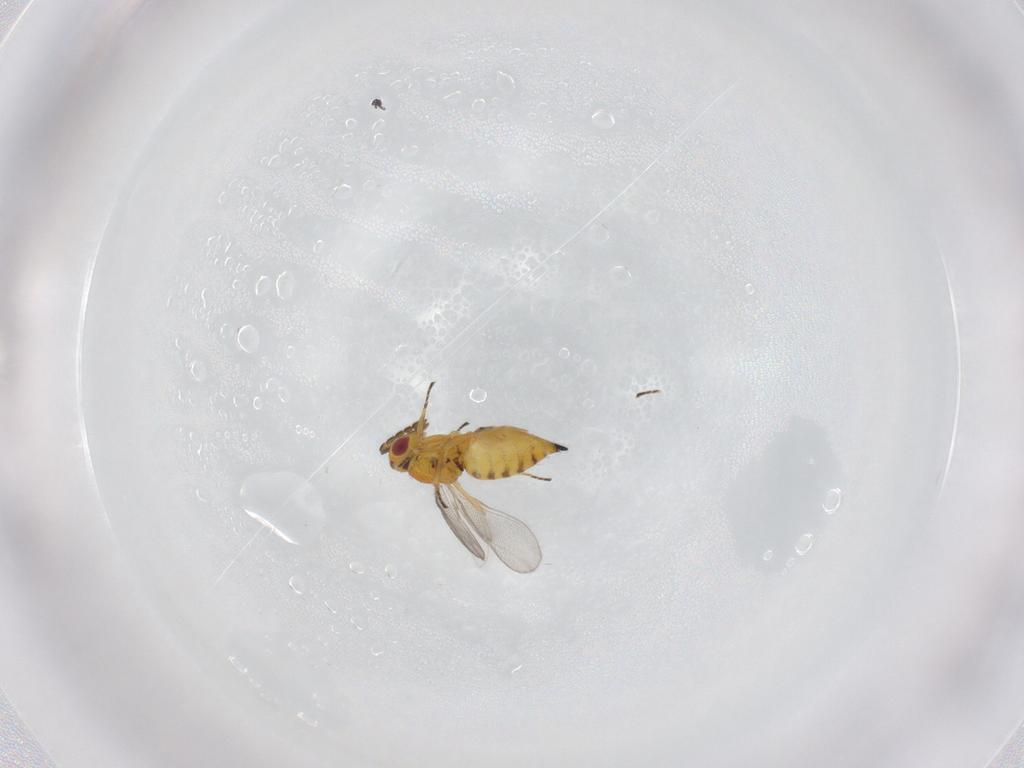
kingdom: Animalia
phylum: Arthropoda
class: Insecta
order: Hymenoptera
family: Eulophidae
